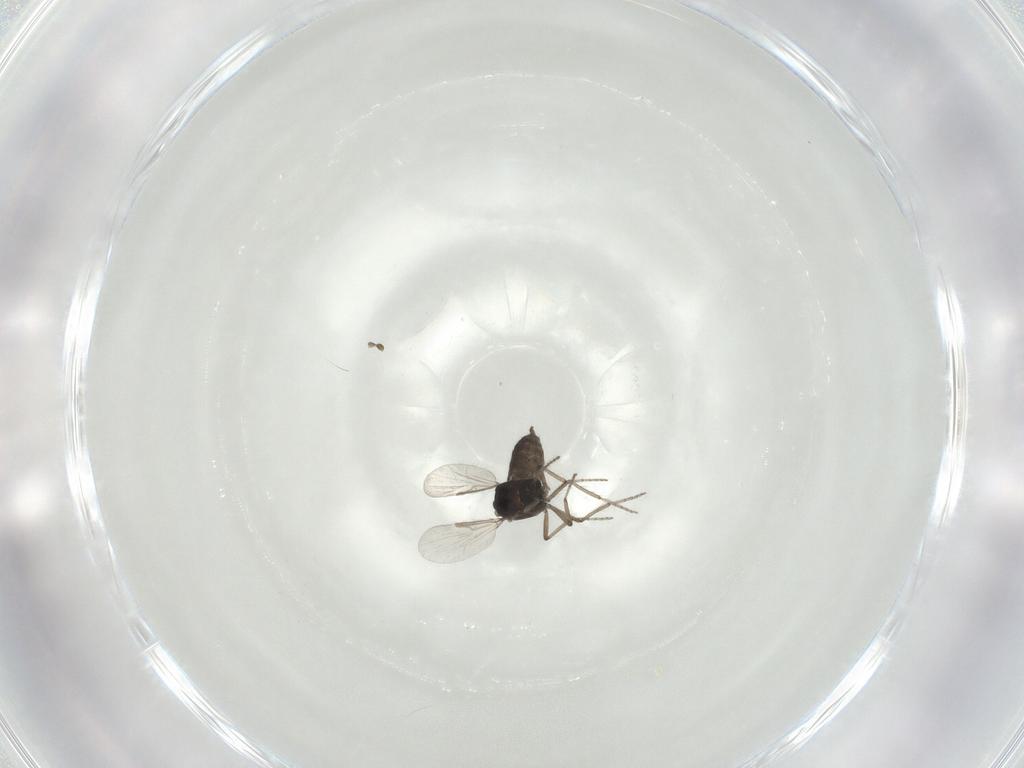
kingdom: Animalia
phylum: Arthropoda
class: Insecta
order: Diptera
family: Ceratopogonidae
